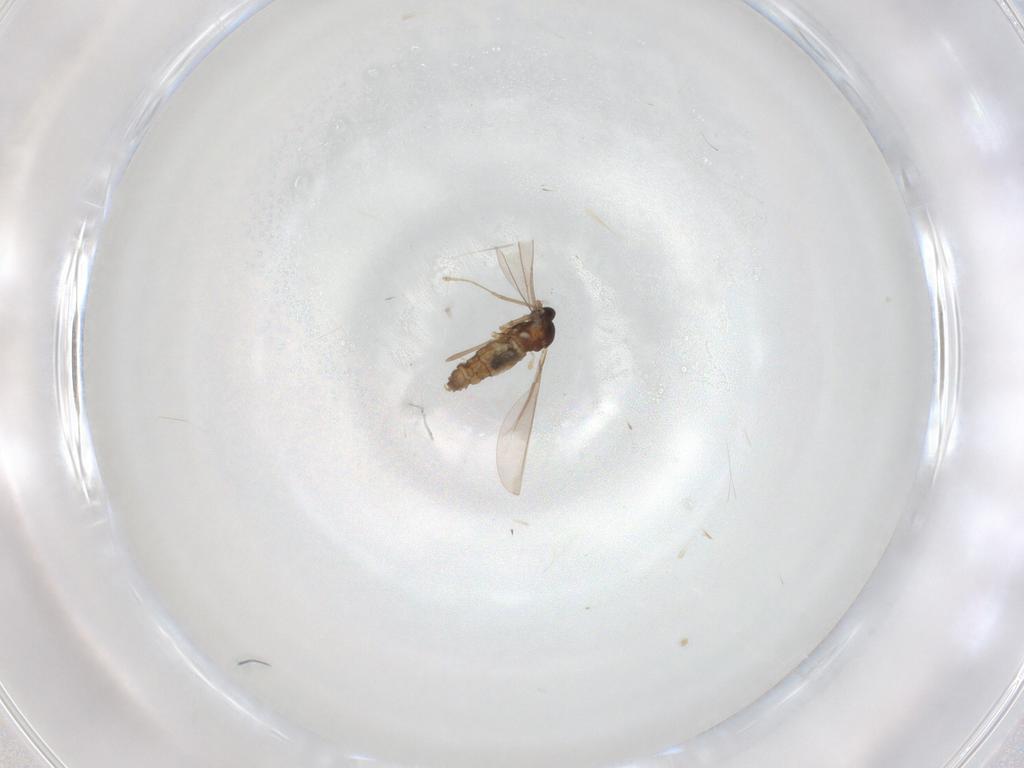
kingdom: Animalia
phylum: Arthropoda
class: Insecta
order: Diptera
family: Cecidomyiidae
